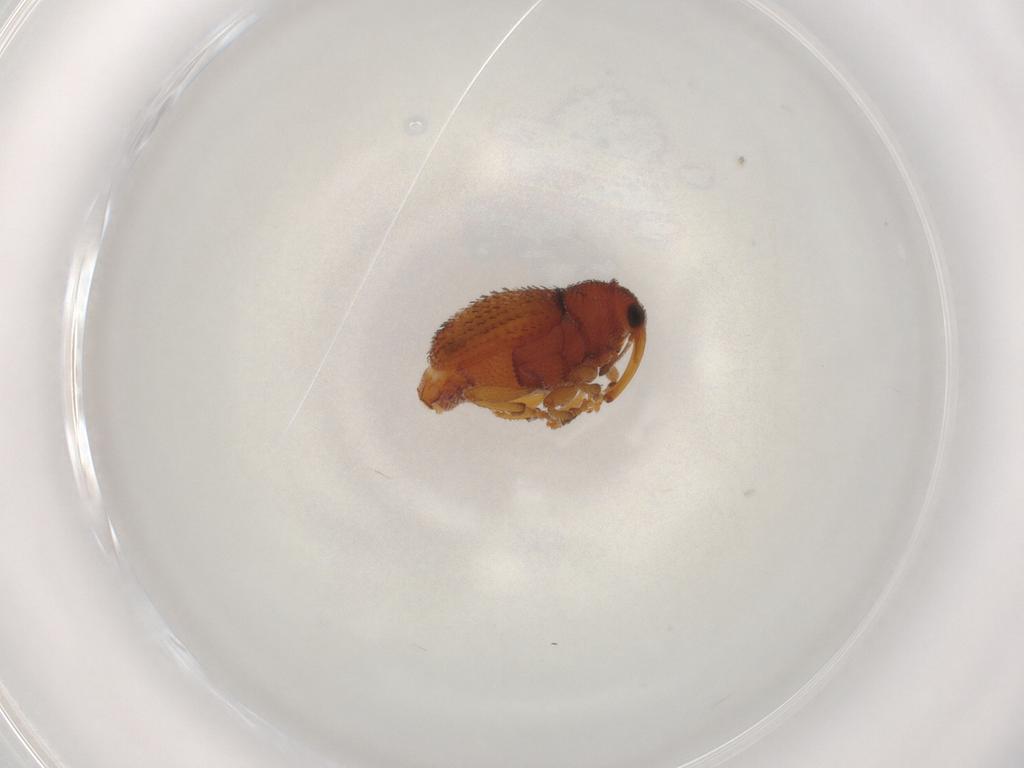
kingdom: Animalia
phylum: Arthropoda
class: Insecta
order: Coleoptera
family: Curculionidae
